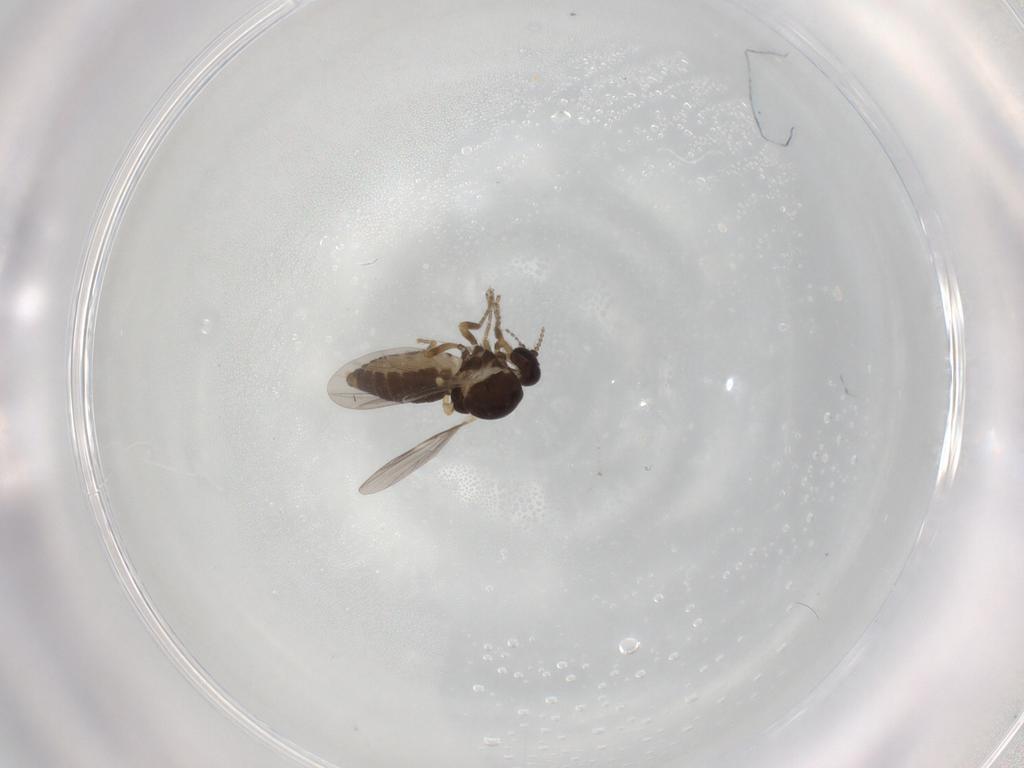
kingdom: Animalia
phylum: Arthropoda
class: Insecta
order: Diptera
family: Ceratopogonidae
